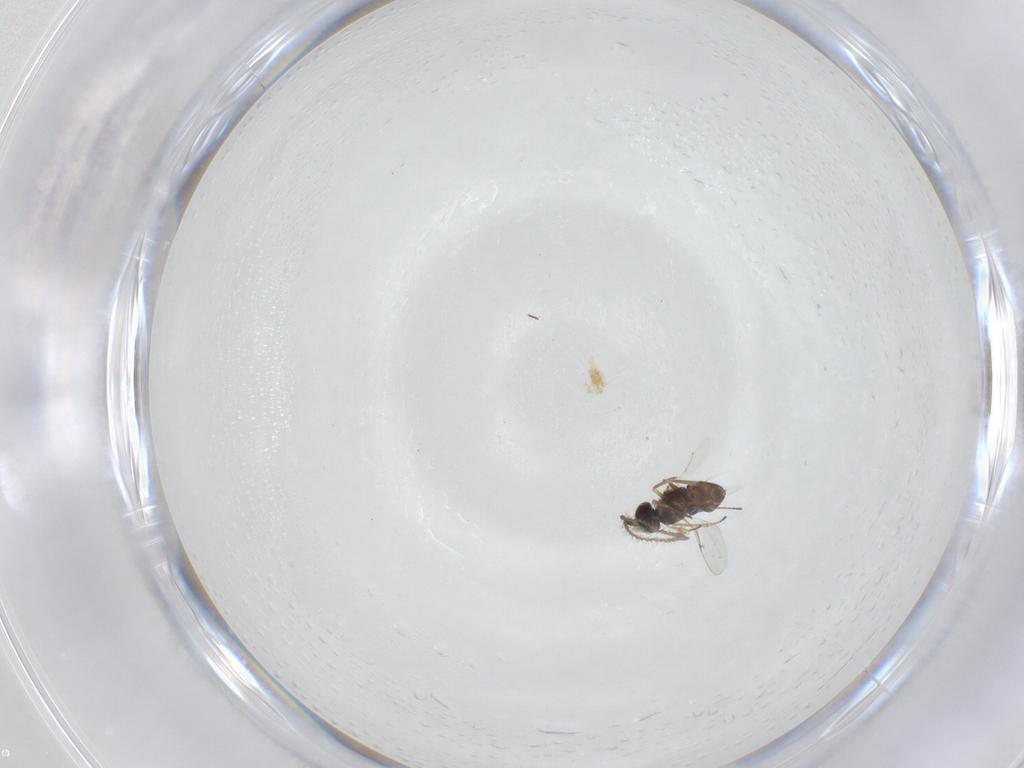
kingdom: Animalia
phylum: Arthropoda
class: Insecta
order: Hymenoptera
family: Encyrtidae
